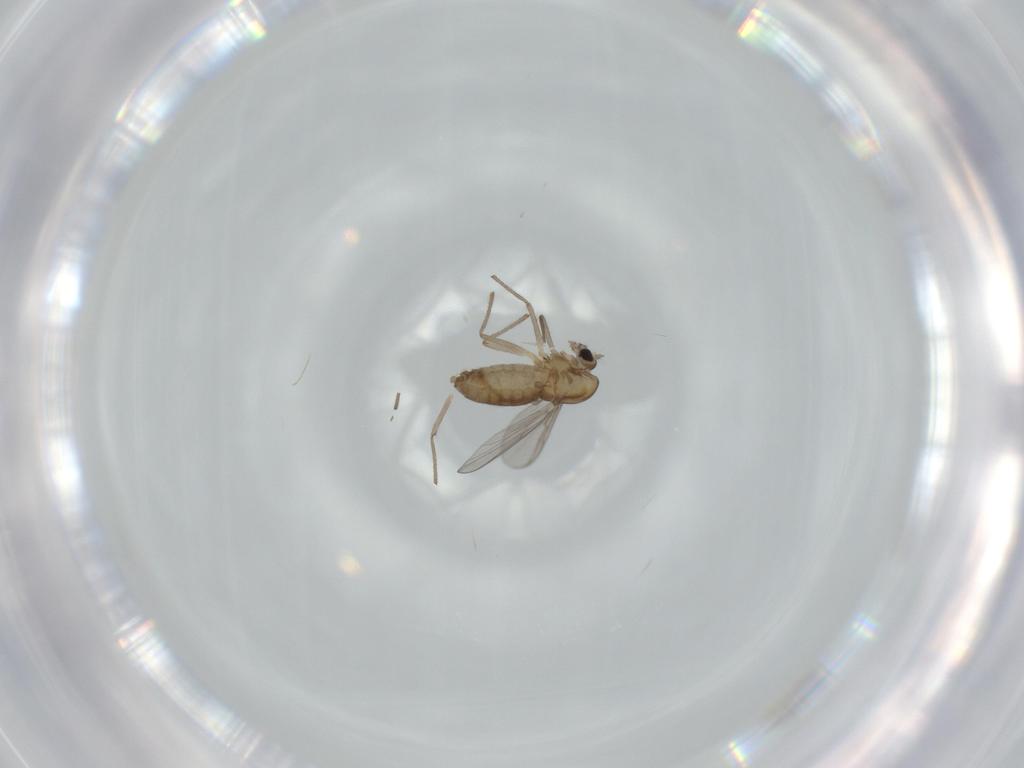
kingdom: Animalia
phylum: Arthropoda
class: Insecta
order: Diptera
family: Chironomidae
